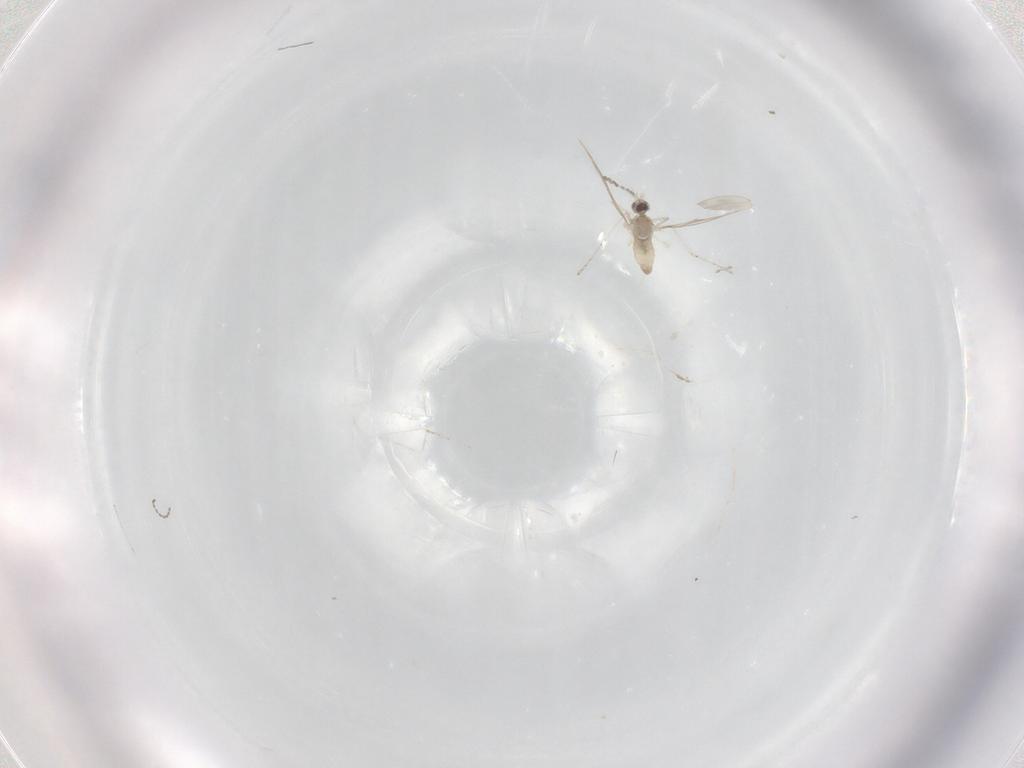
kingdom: Animalia
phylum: Arthropoda
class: Insecta
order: Diptera
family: Cecidomyiidae
